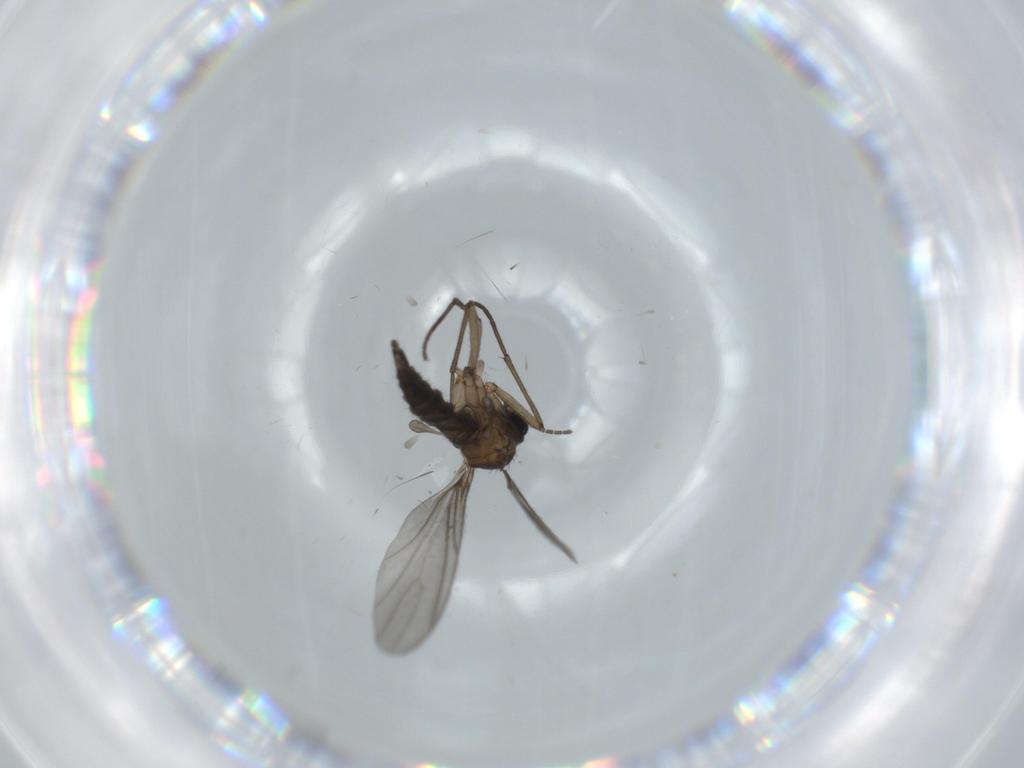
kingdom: Animalia
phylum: Arthropoda
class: Insecta
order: Diptera
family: Sciaridae
